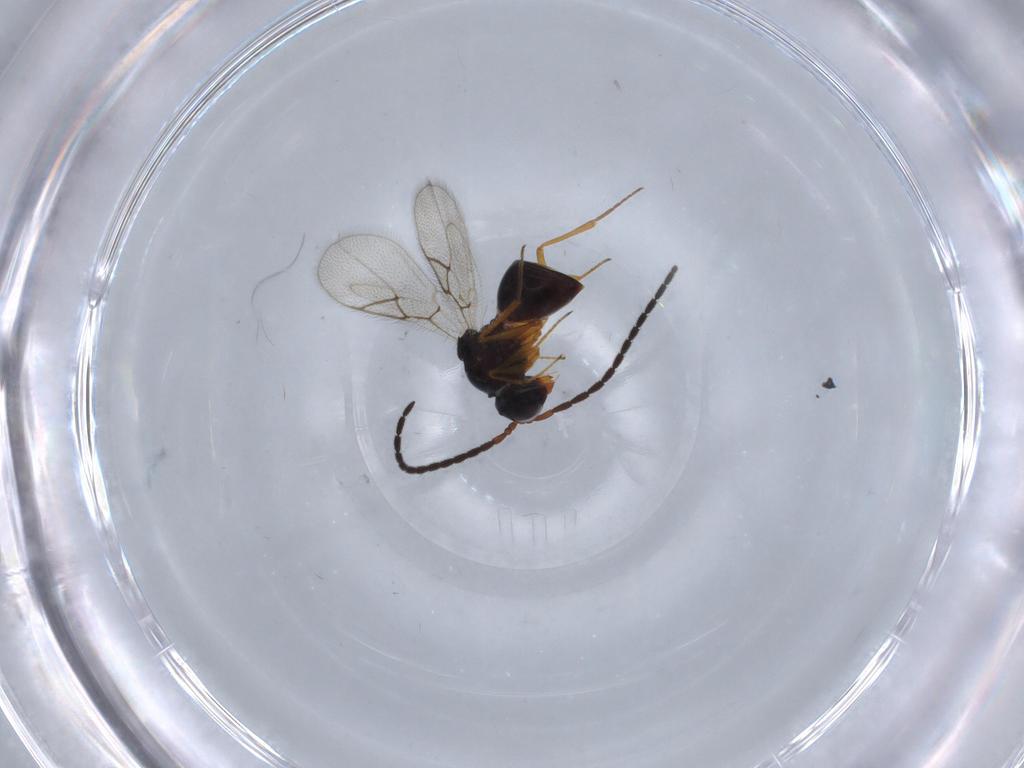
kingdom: Animalia
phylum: Arthropoda
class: Insecta
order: Hymenoptera
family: Figitidae
